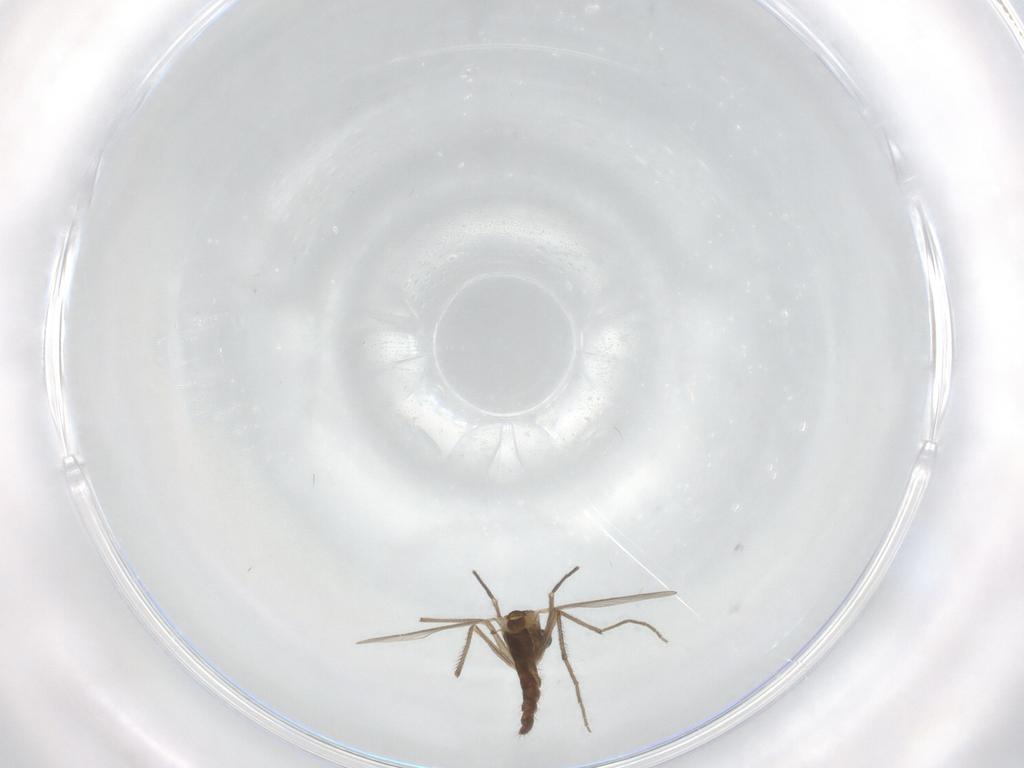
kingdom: Animalia
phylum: Arthropoda
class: Insecta
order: Diptera
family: Chironomidae
